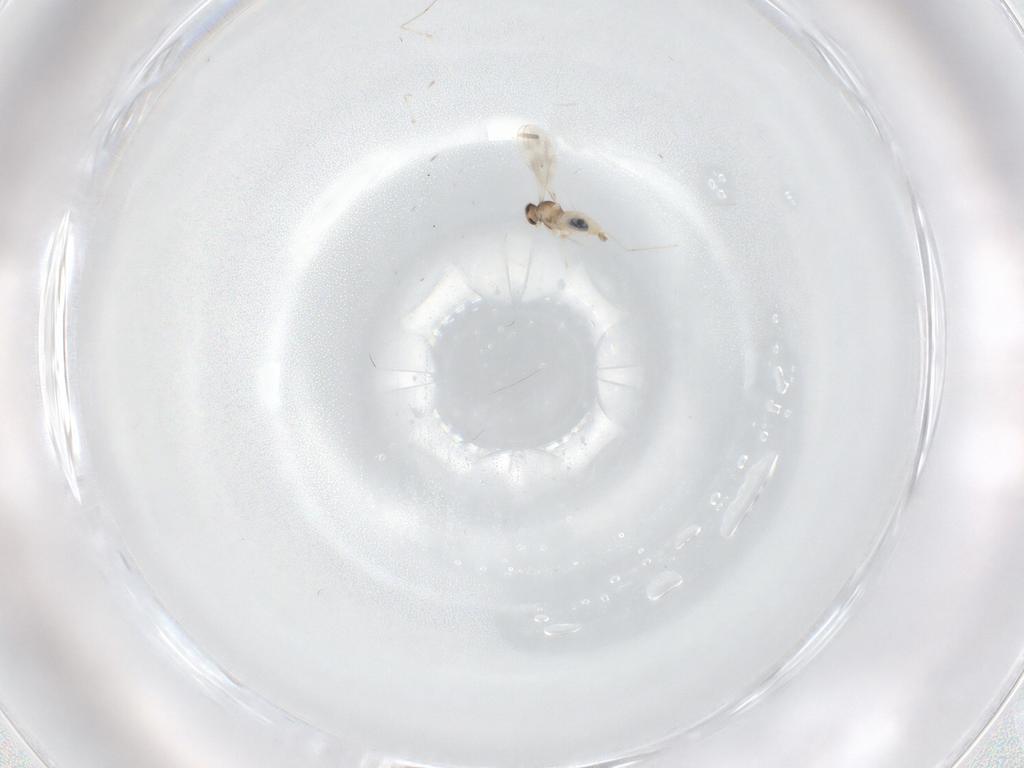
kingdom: Animalia
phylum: Arthropoda
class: Insecta
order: Diptera
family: Cecidomyiidae
